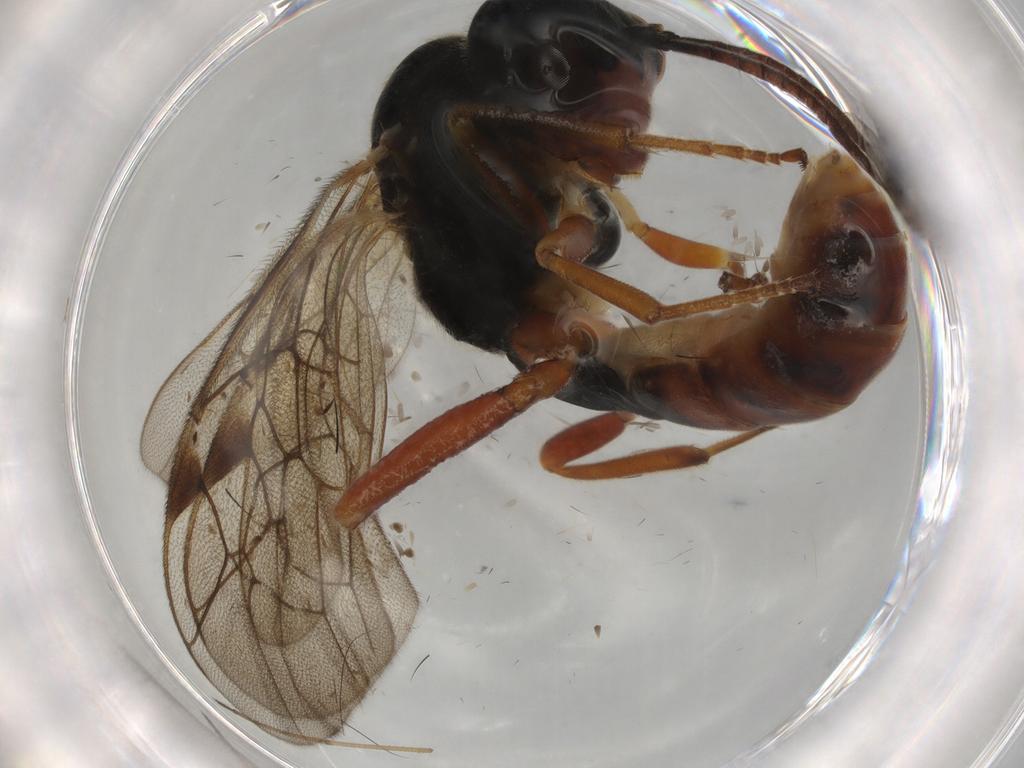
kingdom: Animalia
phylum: Arthropoda
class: Insecta
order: Hymenoptera
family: Ichneumonidae
